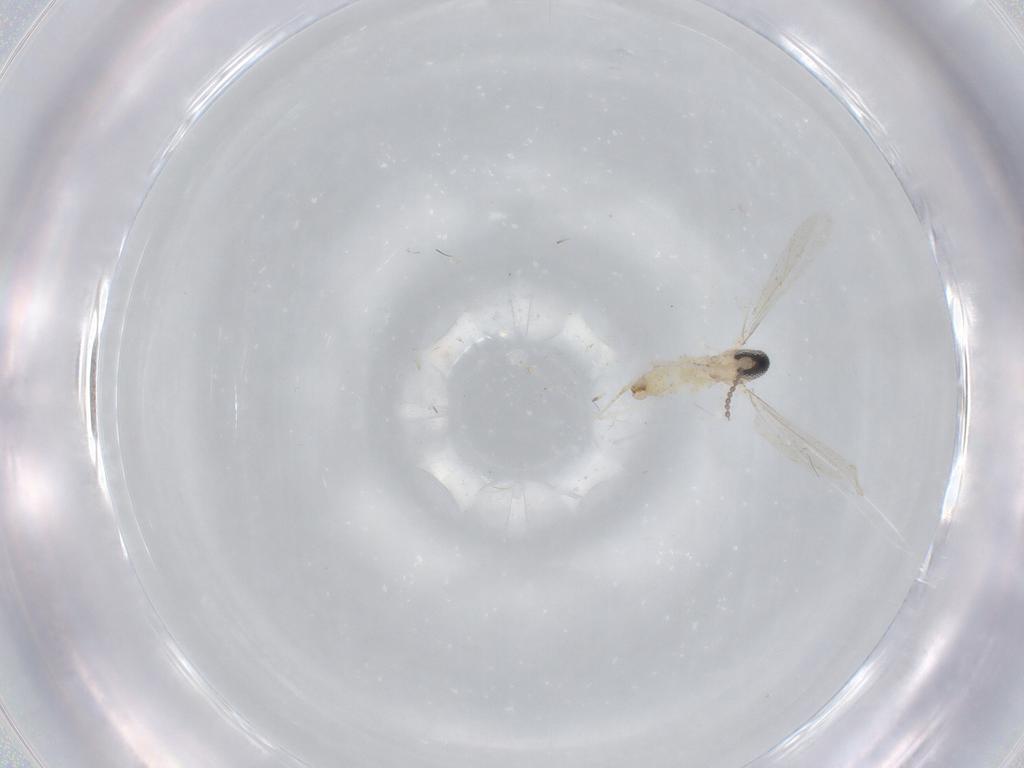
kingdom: Animalia
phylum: Arthropoda
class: Insecta
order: Diptera
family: Cecidomyiidae
